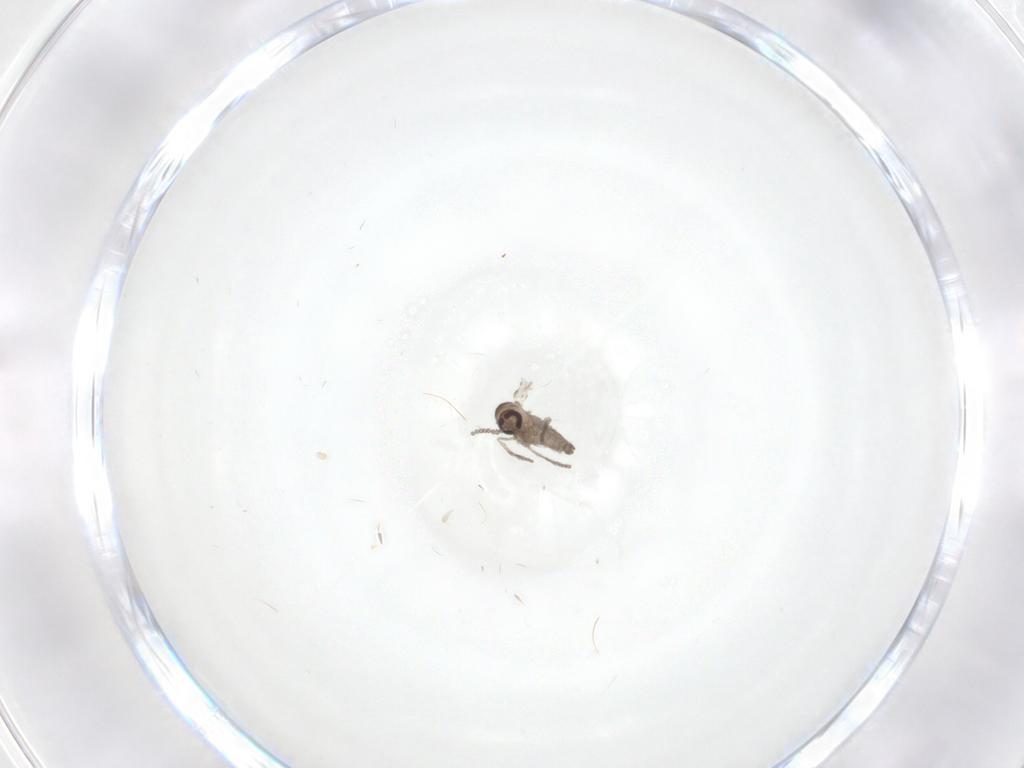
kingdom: Animalia
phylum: Arthropoda
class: Insecta
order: Diptera
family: Psychodidae
